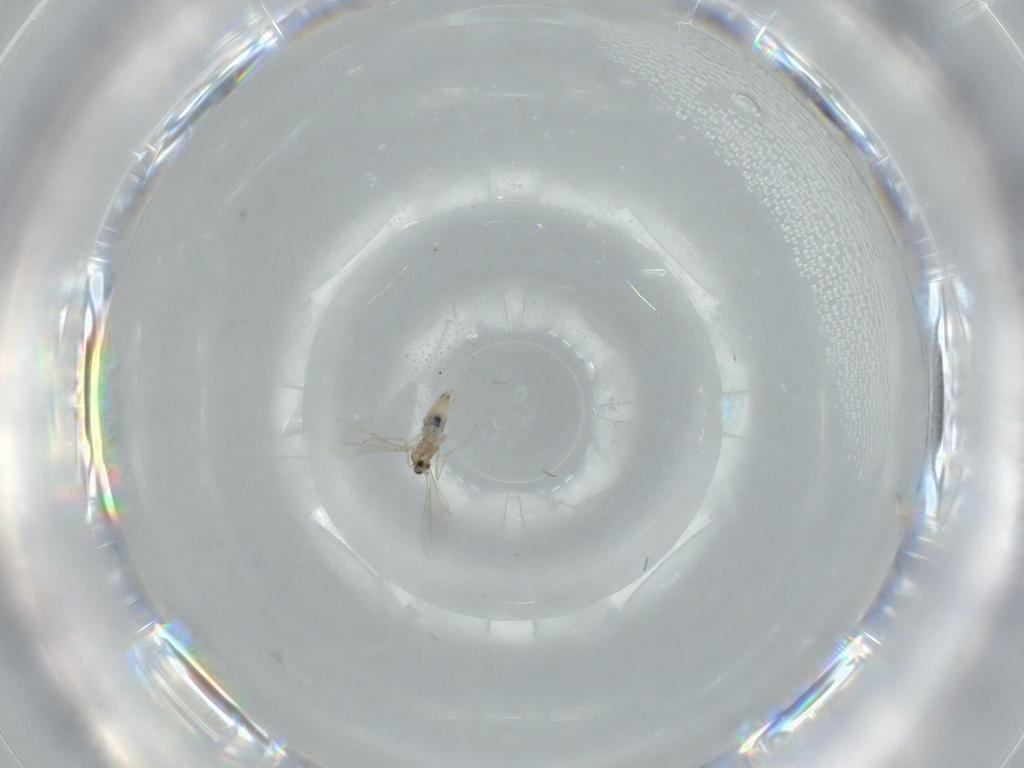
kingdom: Animalia
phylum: Arthropoda
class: Insecta
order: Diptera
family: Cecidomyiidae
